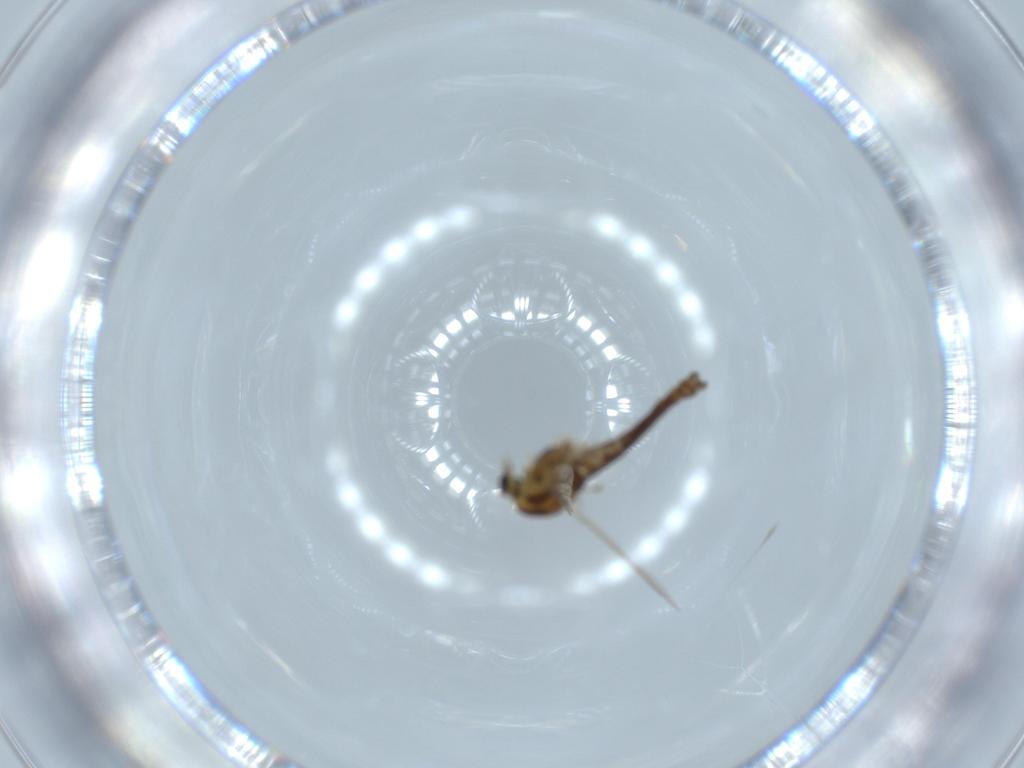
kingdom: Animalia
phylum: Arthropoda
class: Insecta
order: Diptera
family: Chironomidae
